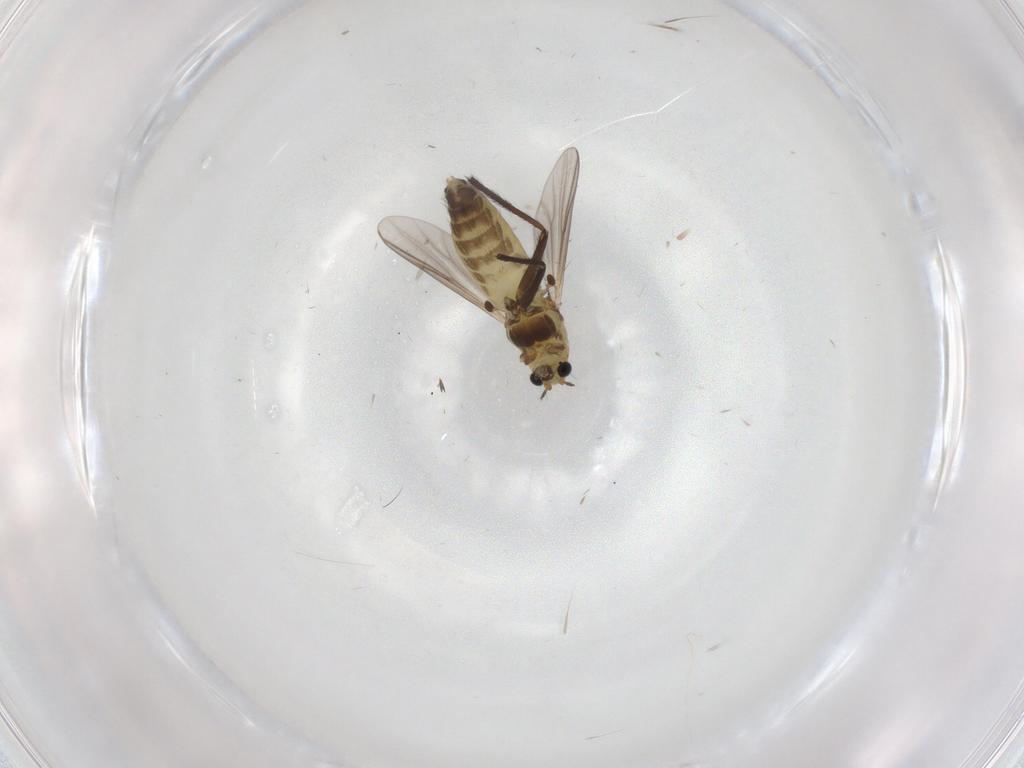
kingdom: Animalia
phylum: Arthropoda
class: Insecta
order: Diptera
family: Chironomidae
